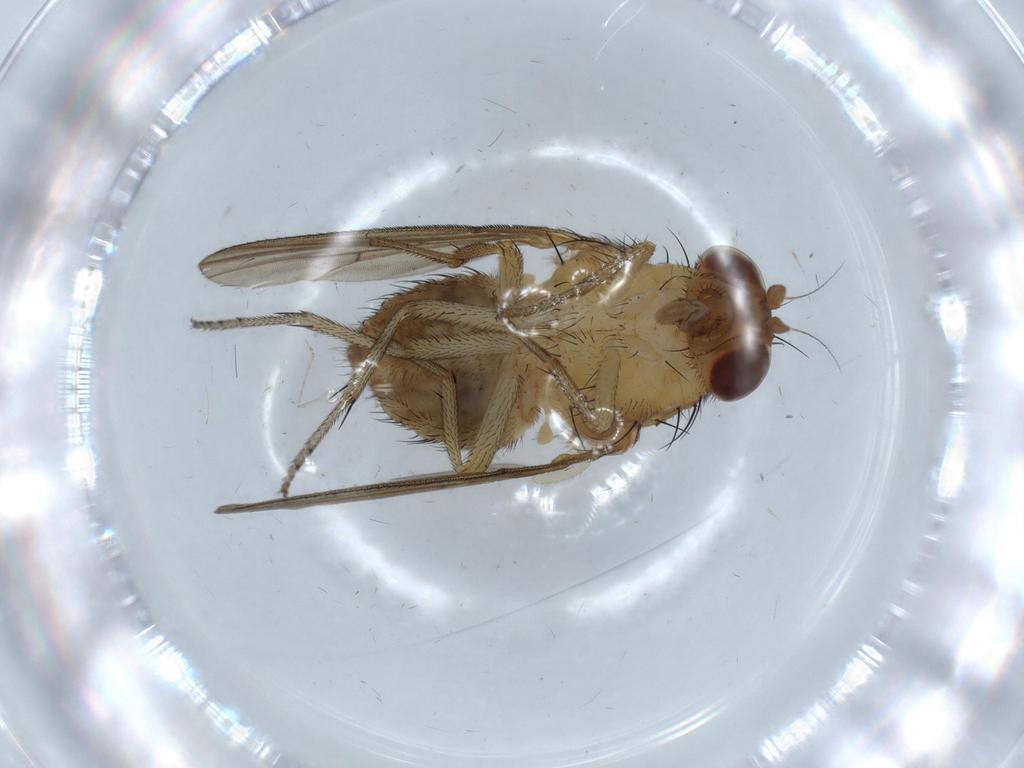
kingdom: Animalia
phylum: Arthropoda
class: Insecta
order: Diptera
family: Cecidomyiidae
